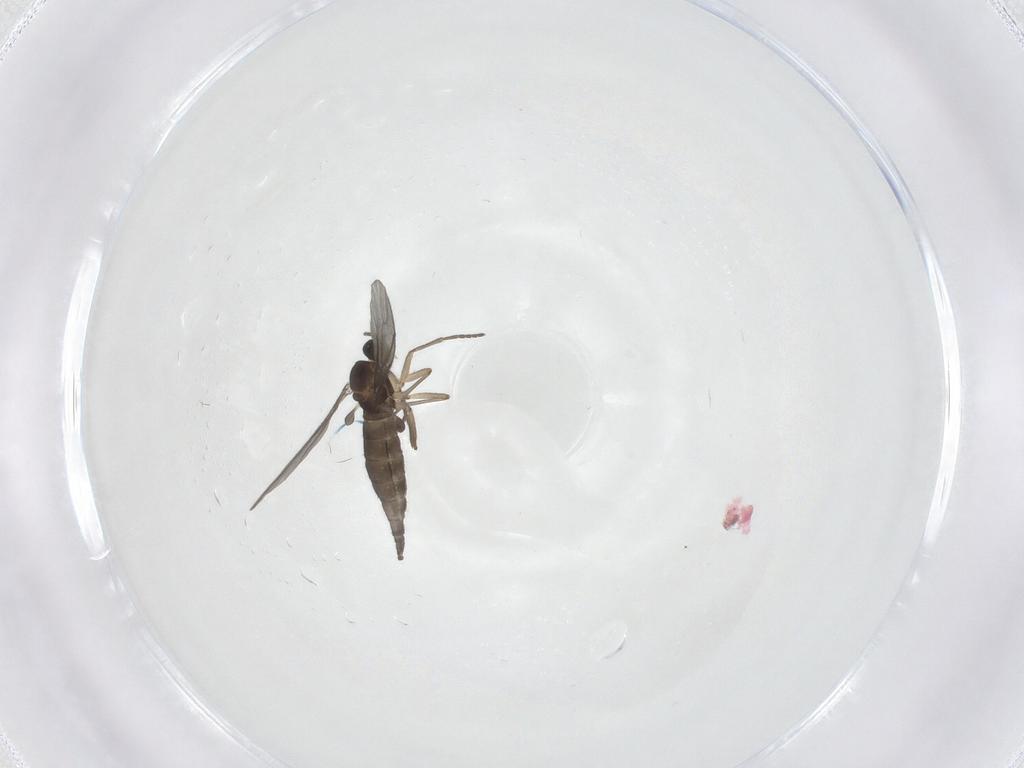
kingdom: Animalia
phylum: Arthropoda
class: Insecta
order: Diptera
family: Sciaridae
